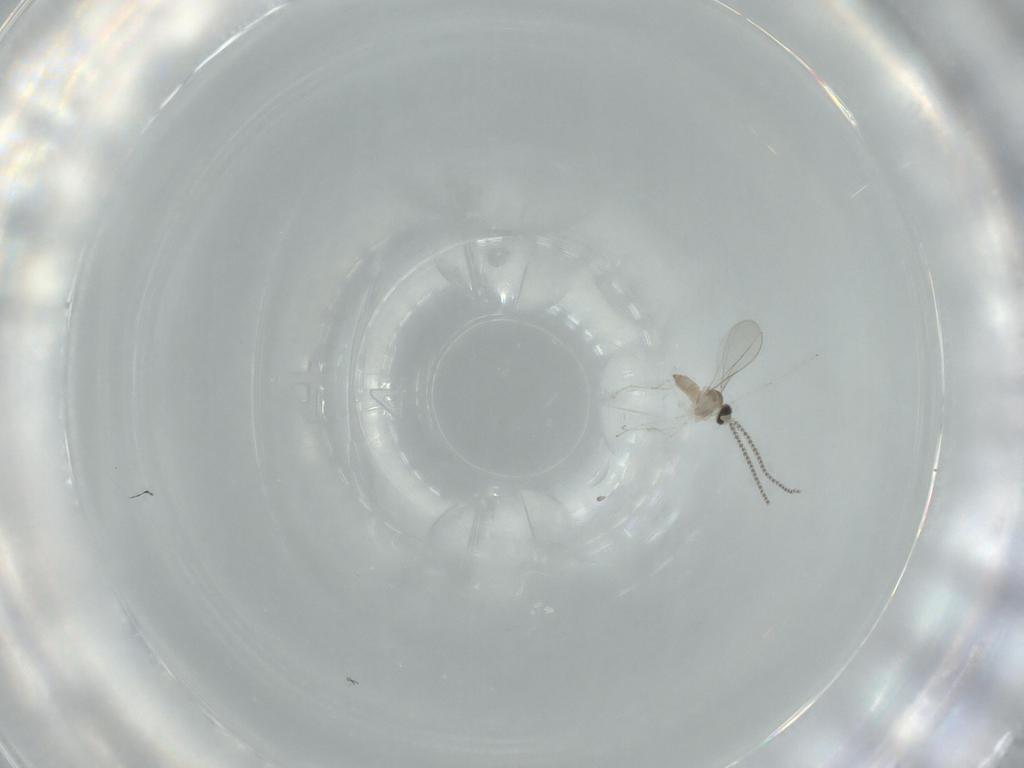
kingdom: Animalia
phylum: Arthropoda
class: Insecta
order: Diptera
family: Cecidomyiidae
